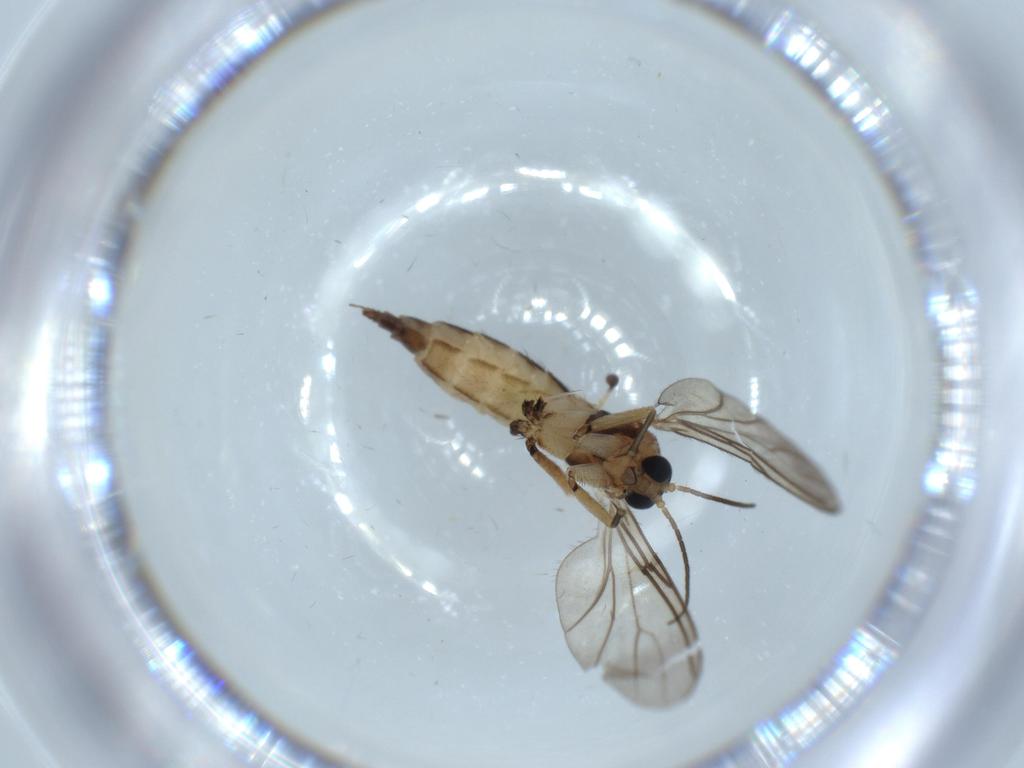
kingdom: Animalia
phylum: Arthropoda
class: Insecta
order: Diptera
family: Sciaridae
